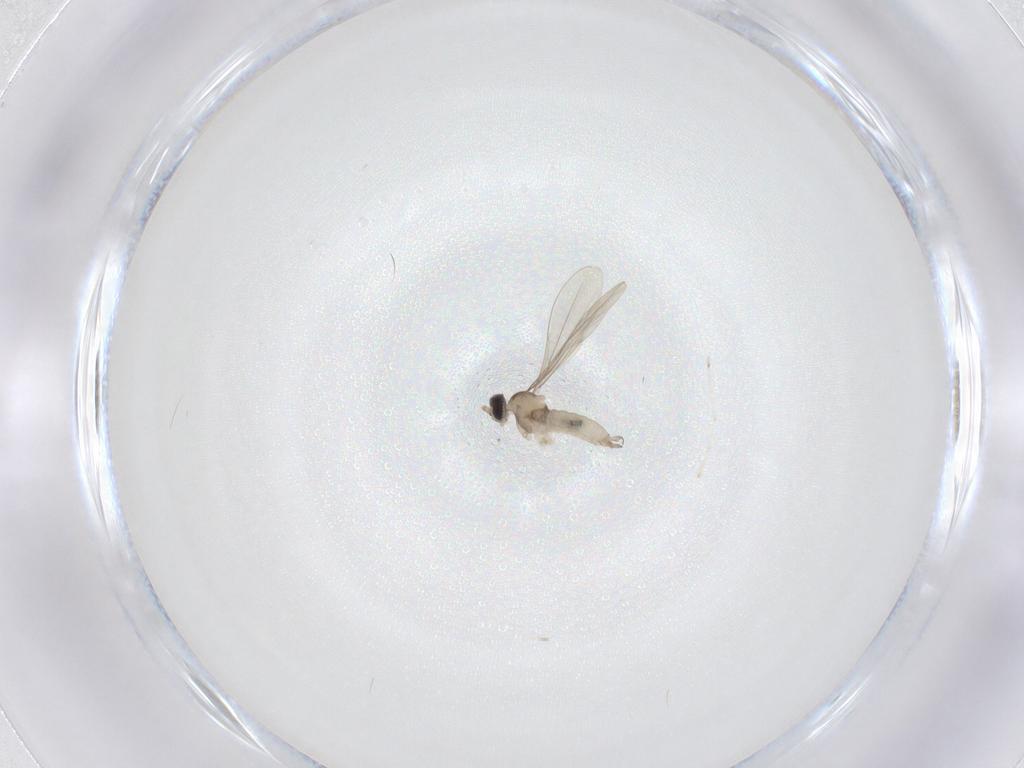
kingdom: Animalia
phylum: Arthropoda
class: Insecta
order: Diptera
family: Cecidomyiidae
